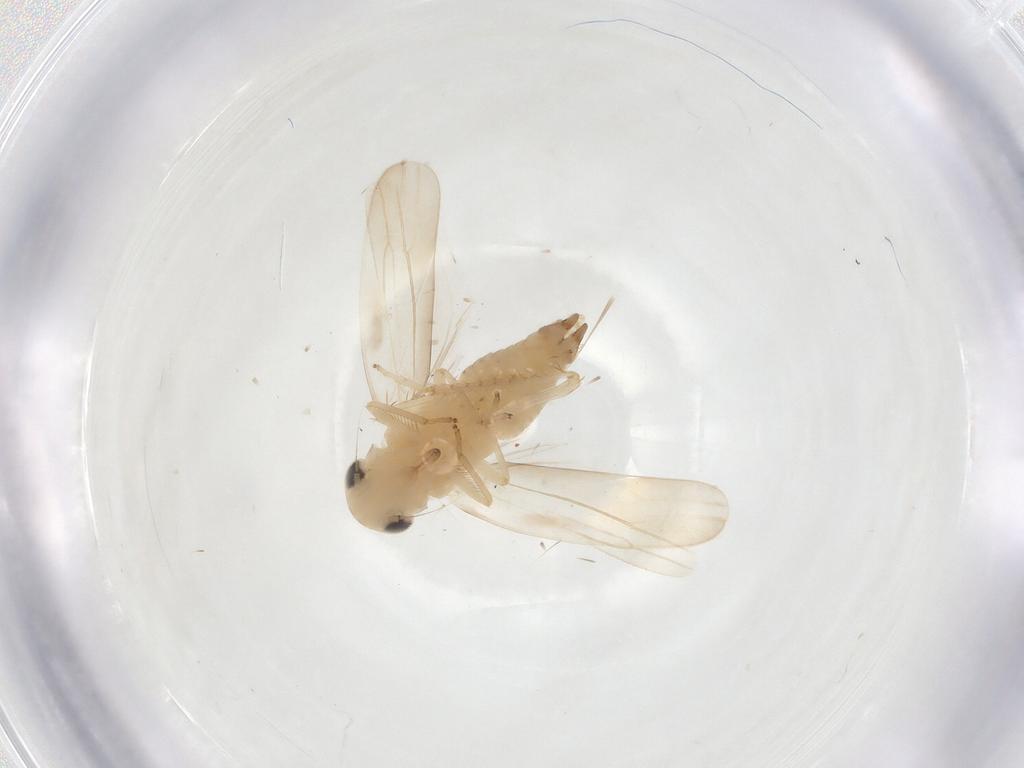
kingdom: Animalia
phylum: Arthropoda
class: Insecta
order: Hemiptera
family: Cicadellidae
